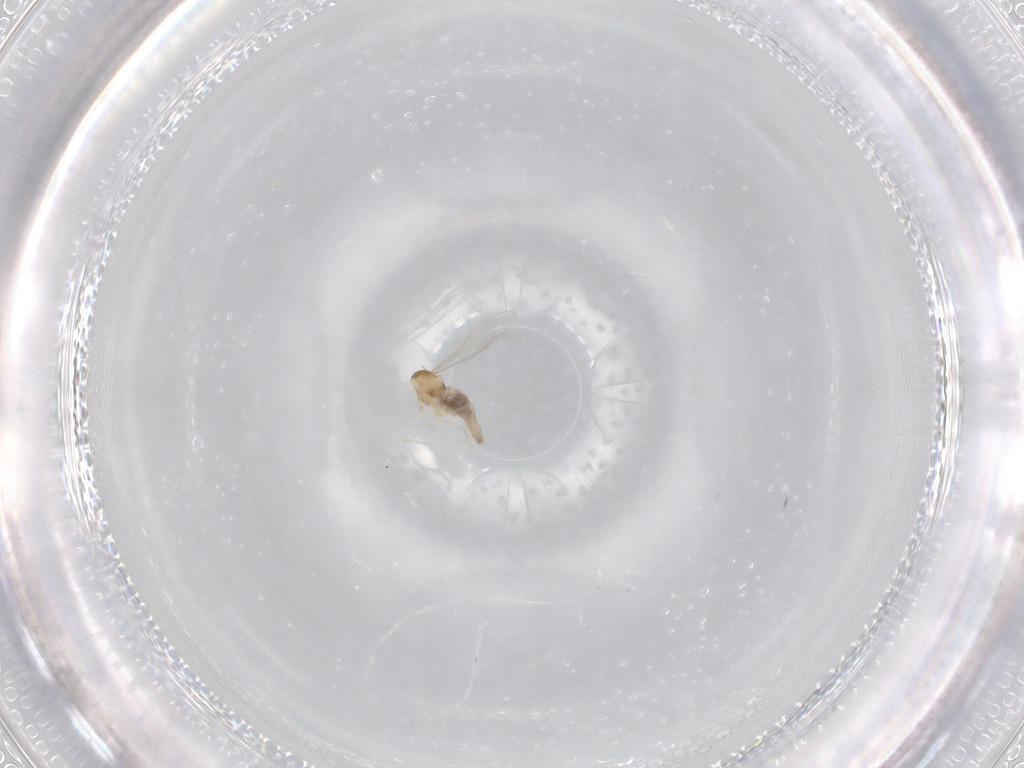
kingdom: Animalia
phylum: Arthropoda
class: Insecta
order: Diptera
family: Cecidomyiidae
